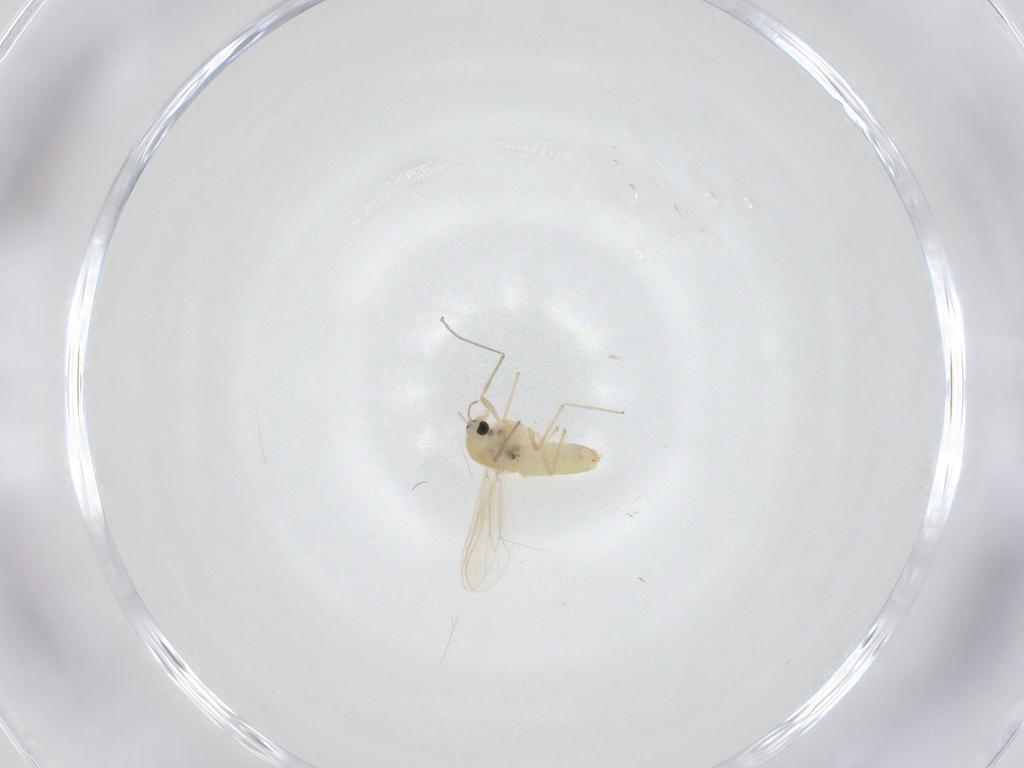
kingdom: Animalia
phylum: Arthropoda
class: Insecta
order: Diptera
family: Chironomidae
